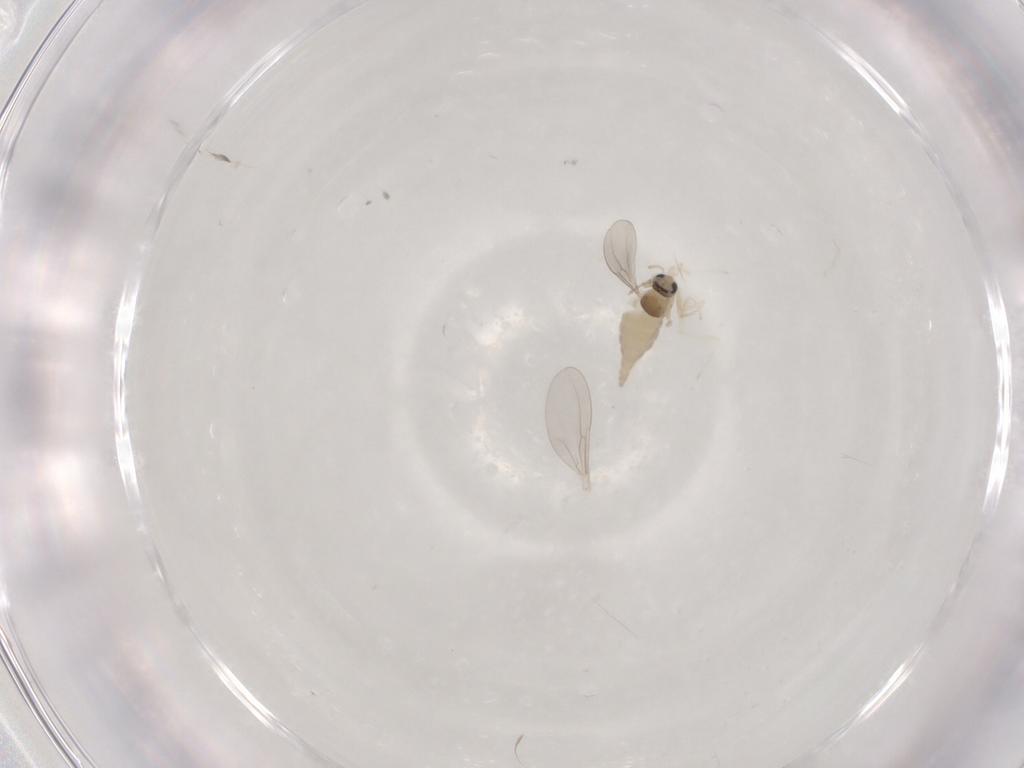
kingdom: Animalia
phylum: Arthropoda
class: Insecta
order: Diptera
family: Cecidomyiidae
